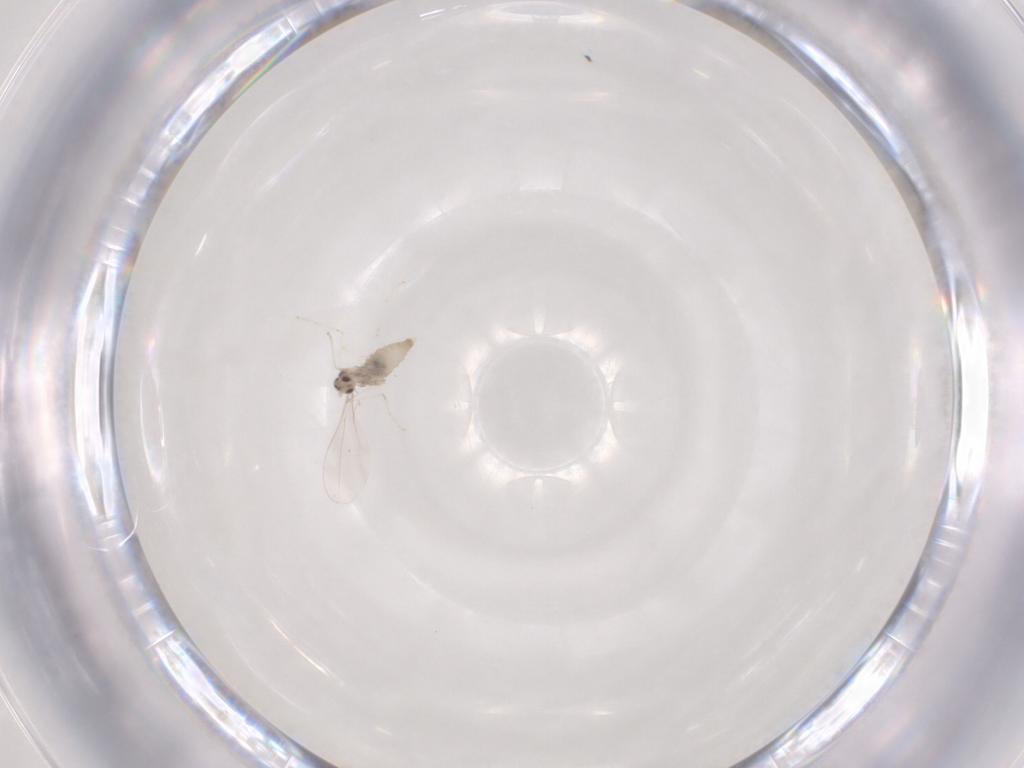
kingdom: Animalia
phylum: Arthropoda
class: Insecta
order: Diptera
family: Cecidomyiidae
